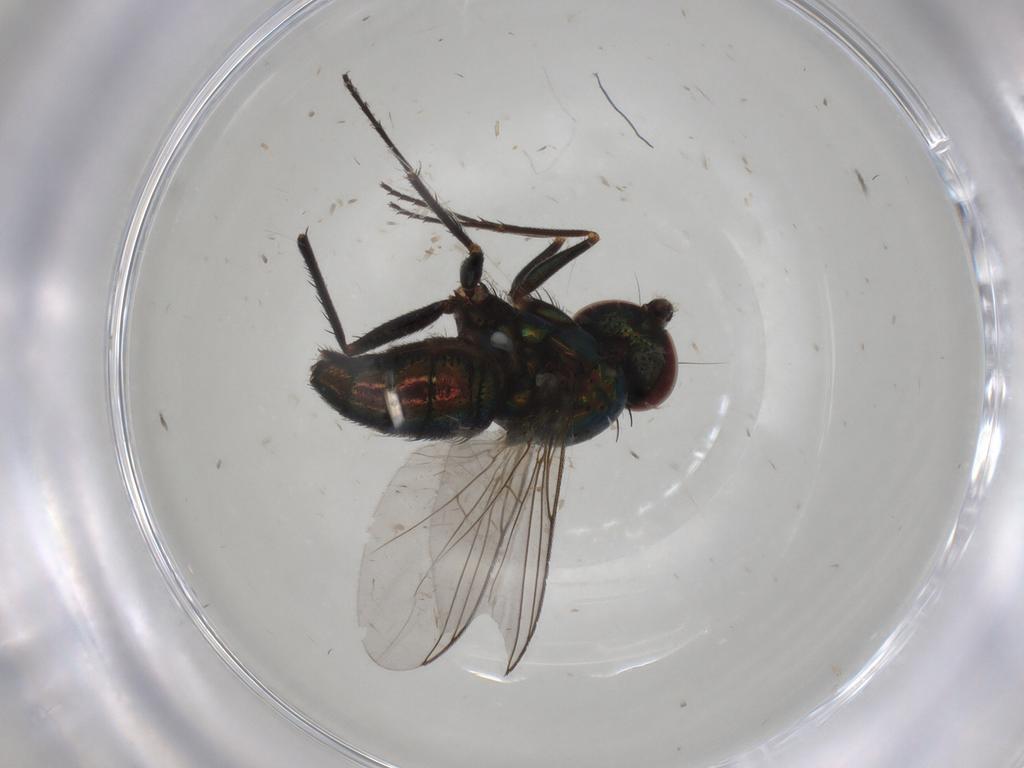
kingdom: Animalia
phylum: Arthropoda
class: Insecta
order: Diptera
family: Dolichopodidae
